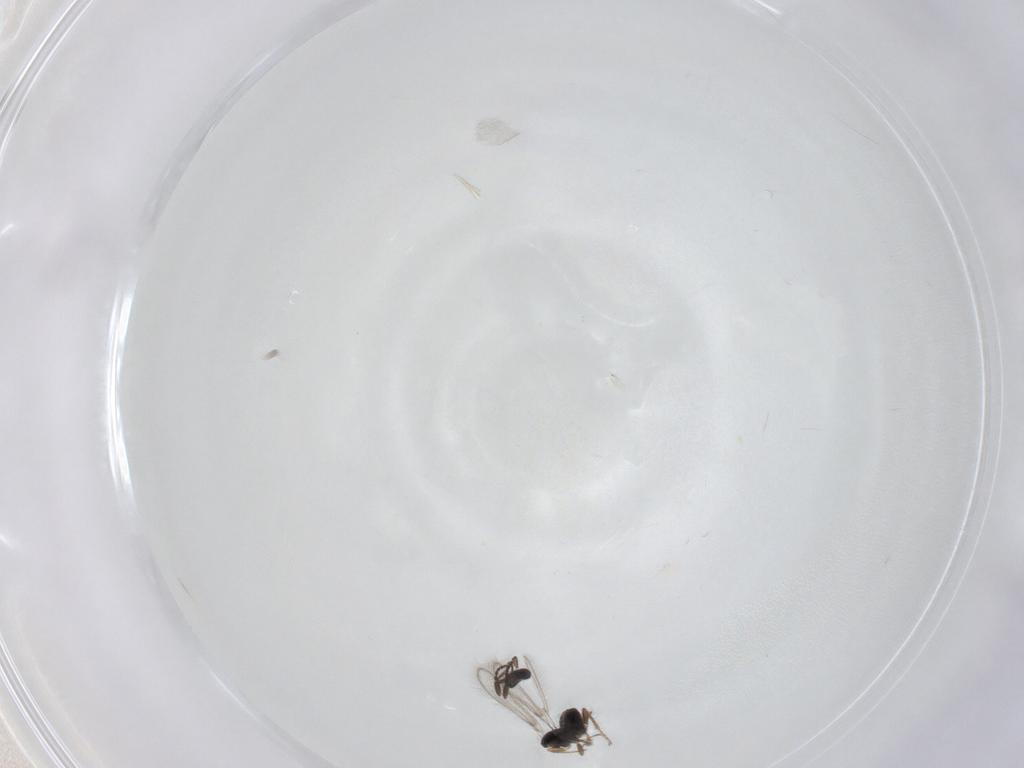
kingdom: Animalia
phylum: Arthropoda
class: Insecta
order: Hymenoptera
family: Mymaridae
